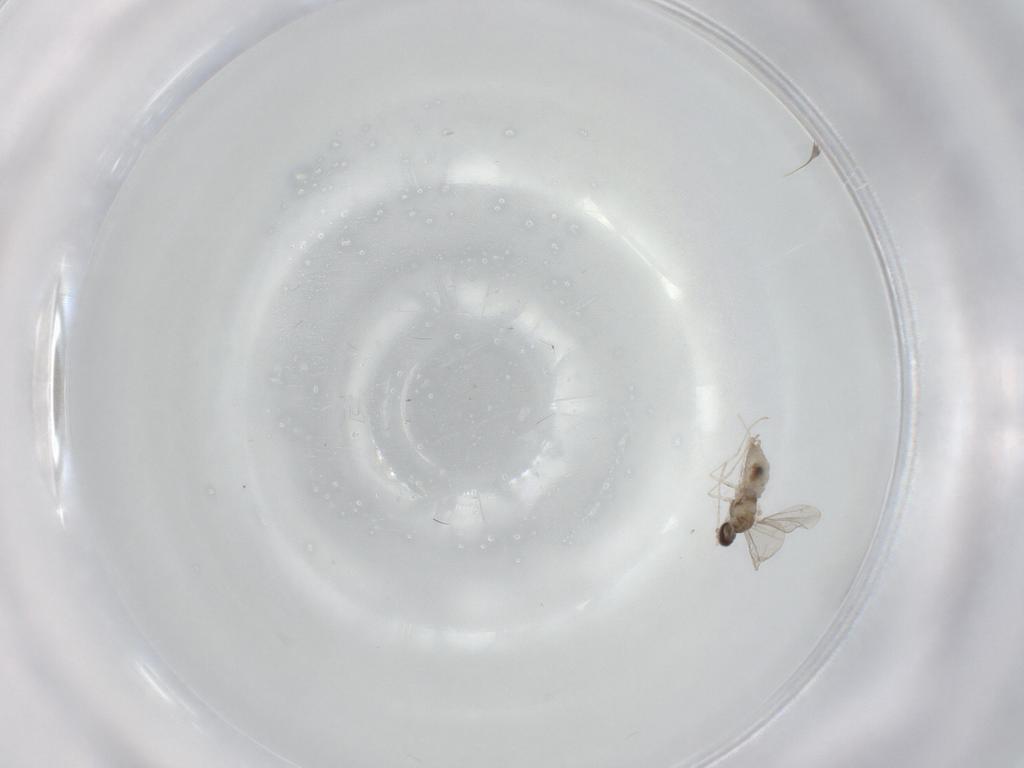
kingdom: Animalia
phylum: Arthropoda
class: Insecta
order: Diptera
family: Cecidomyiidae
